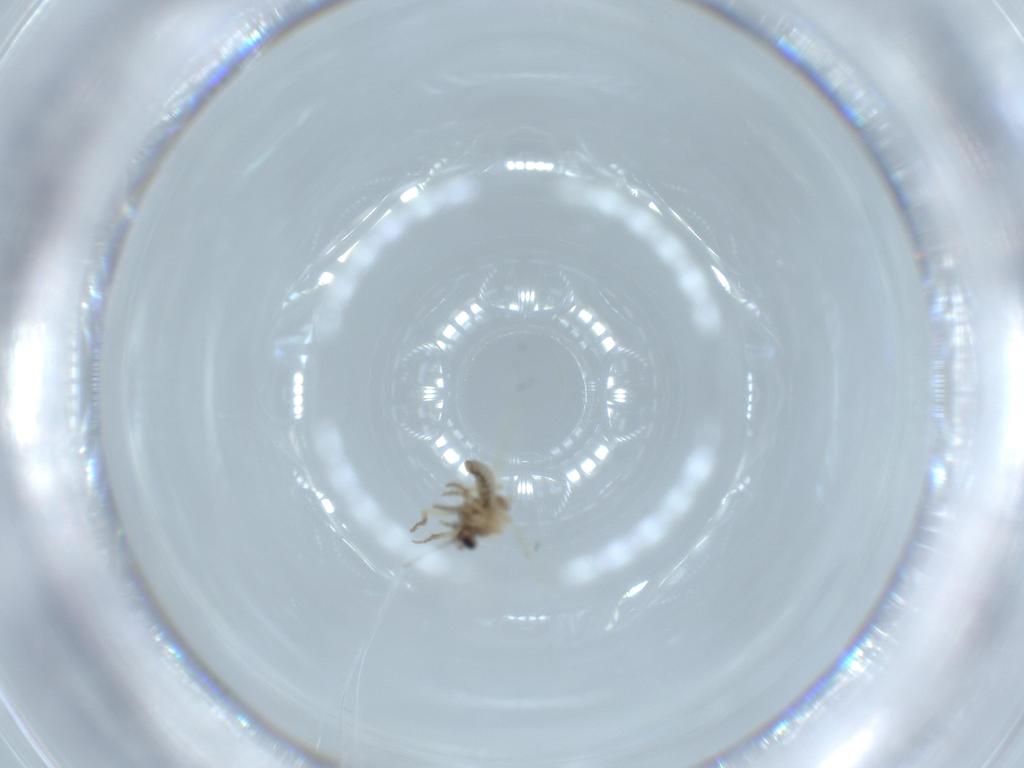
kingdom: Animalia
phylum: Arthropoda
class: Insecta
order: Diptera
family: Ceratopogonidae
